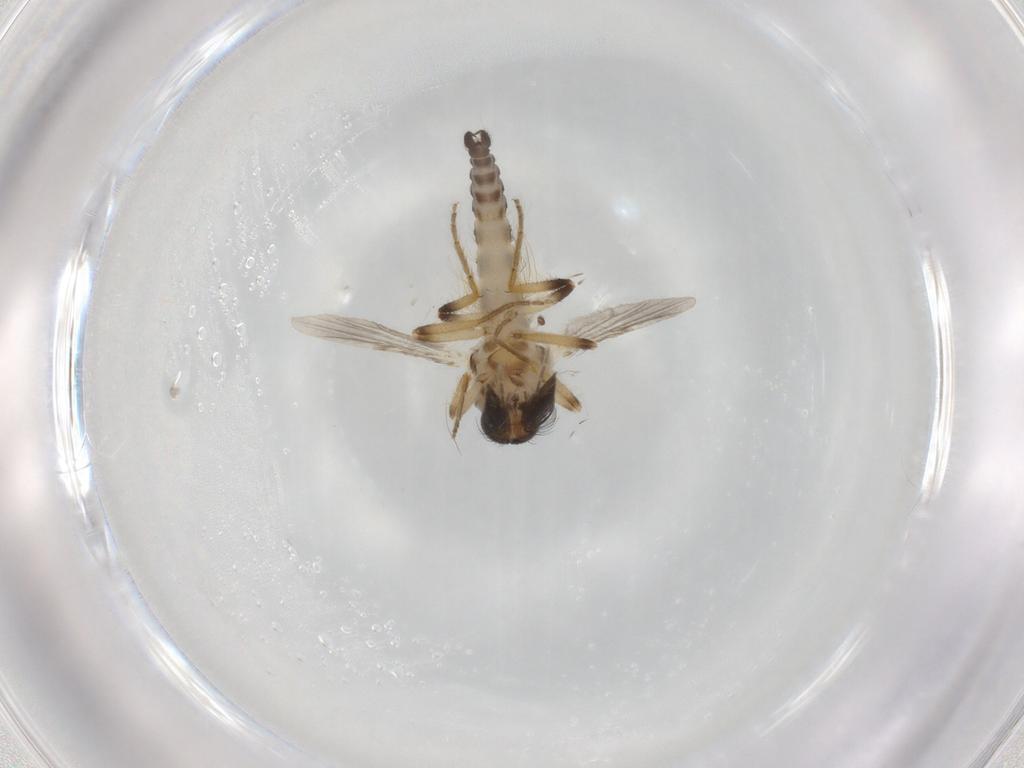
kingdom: Animalia
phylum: Arthropoda
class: Insecta
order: Diptera
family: Ceratopogonidae
